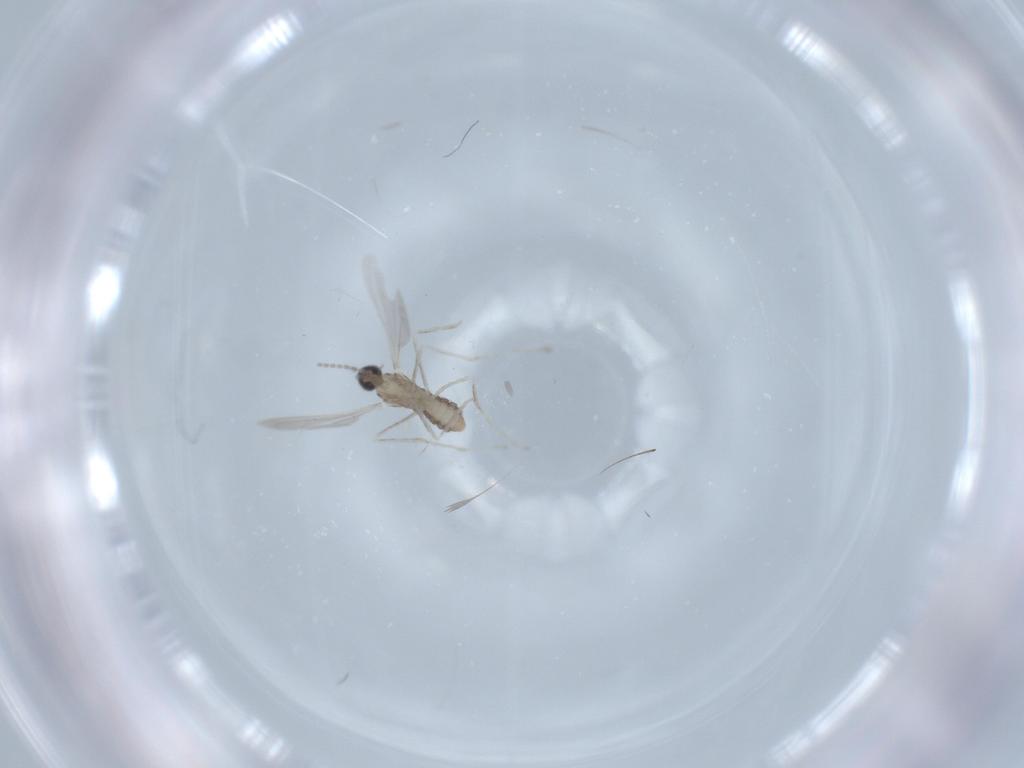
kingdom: Animalia
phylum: Arthropoda
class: Insecta
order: Diptera
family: Cecidomyiidae
